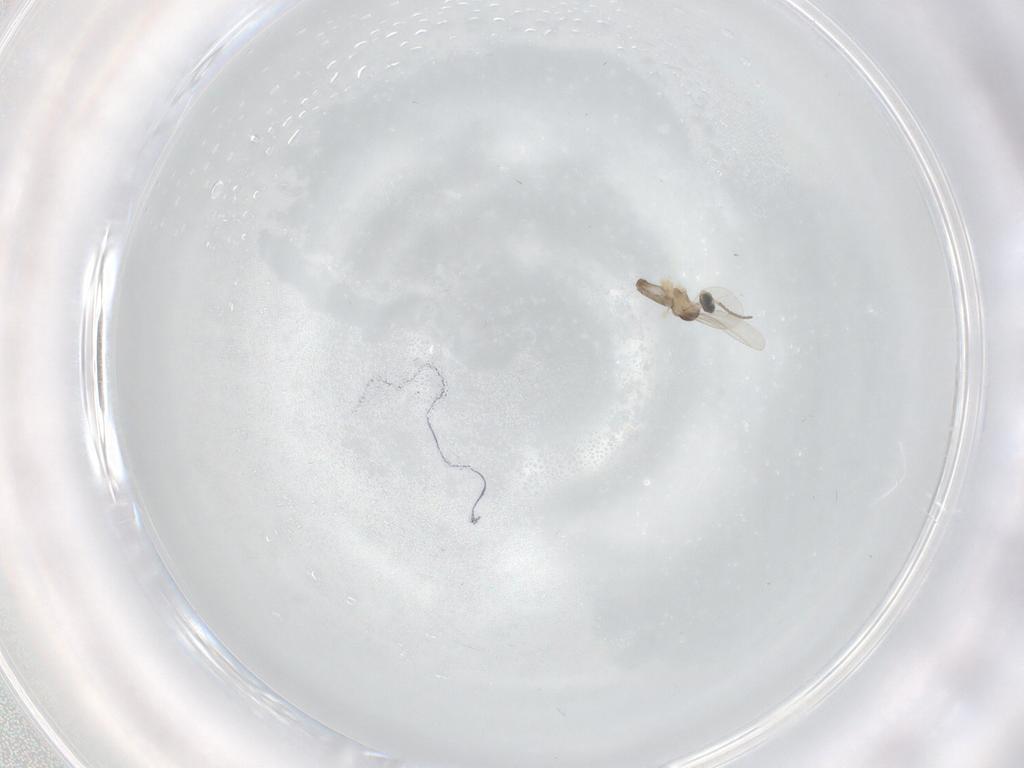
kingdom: Animalia
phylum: Arthropoda
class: Insecta
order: Diptera
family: Cecidomyiidae
